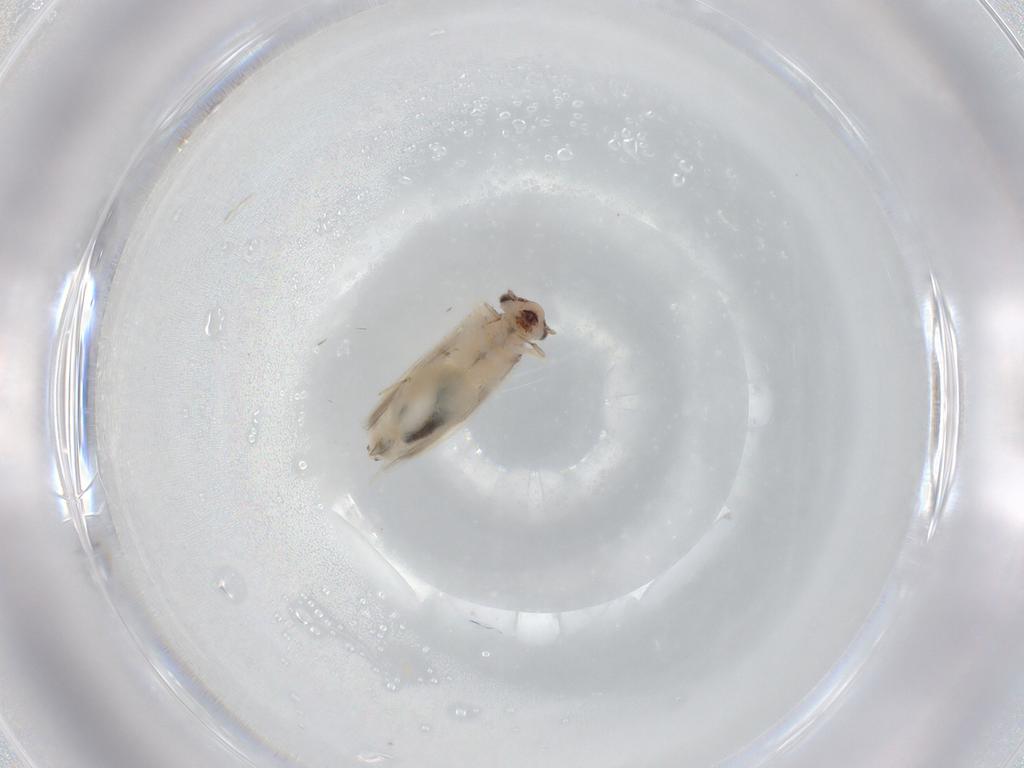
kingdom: Animalia
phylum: Arthropoda
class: Insecta
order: Psocodea
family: Lepidopsocidae
